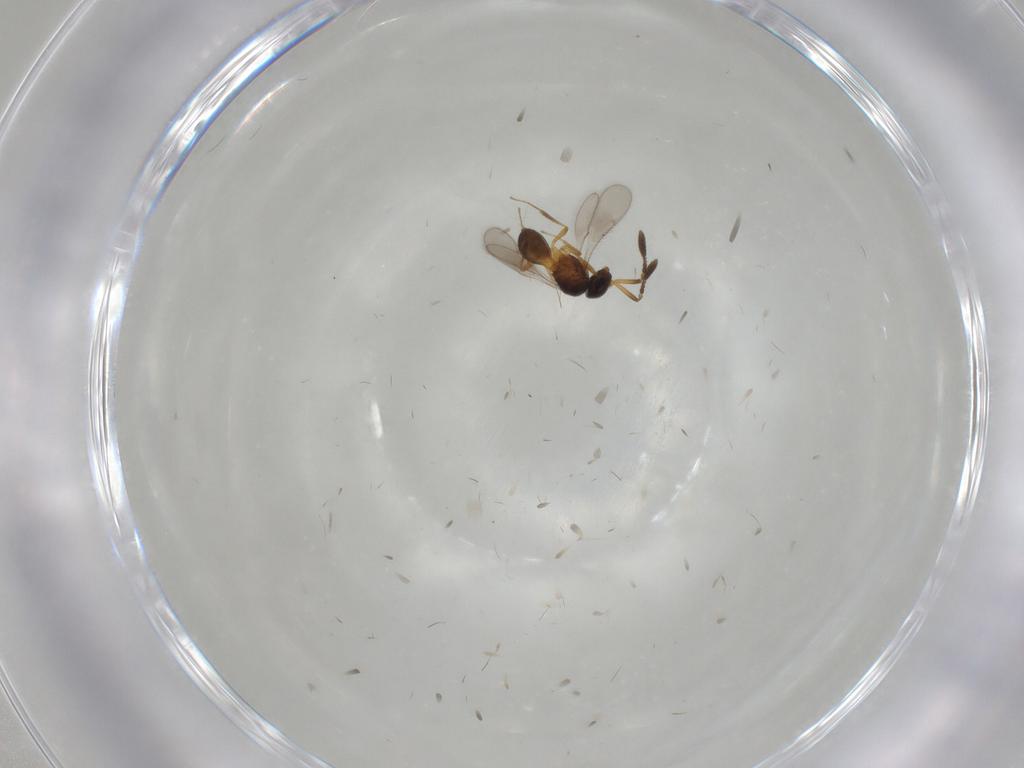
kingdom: Animalia
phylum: Arthropoda
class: Insecta
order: Hymenoptera
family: Scelionidae
